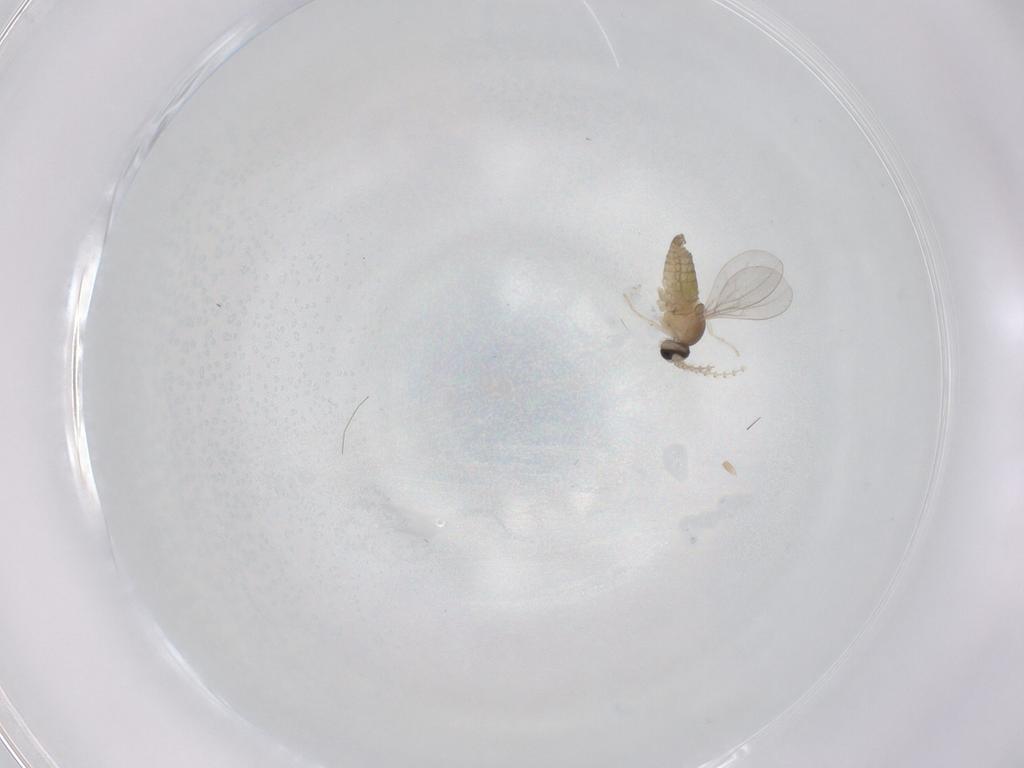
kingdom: Animalia
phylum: Arthropoda
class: Insecta
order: Diptera
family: Cecidomyiidae
